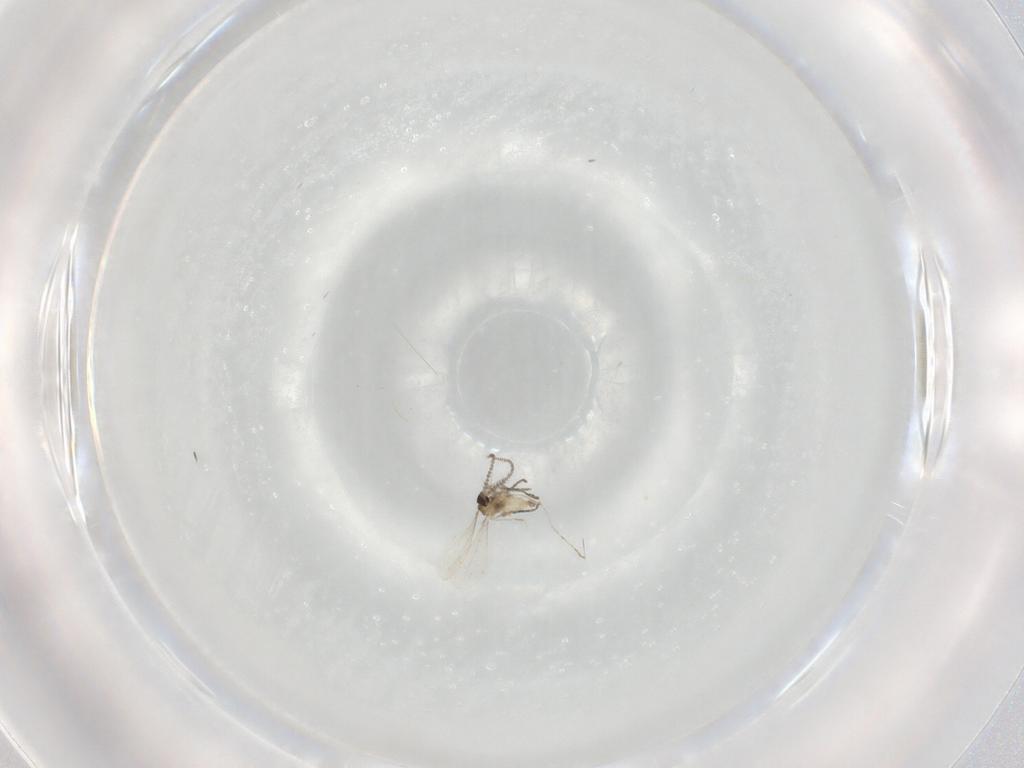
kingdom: Animalia
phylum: Arthropoda
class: Insecta
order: Diptera
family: Cecidomyiidae
